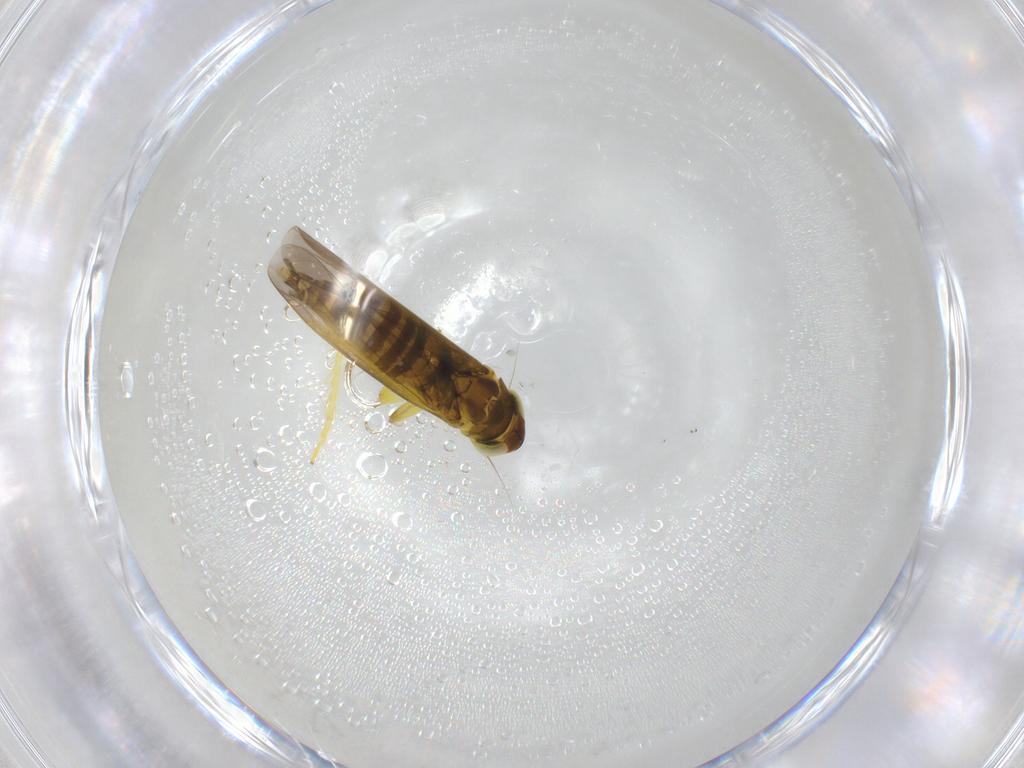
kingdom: Animalia
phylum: Arthropoda
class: Insecta
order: Hemiptera
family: Cicadellidae
